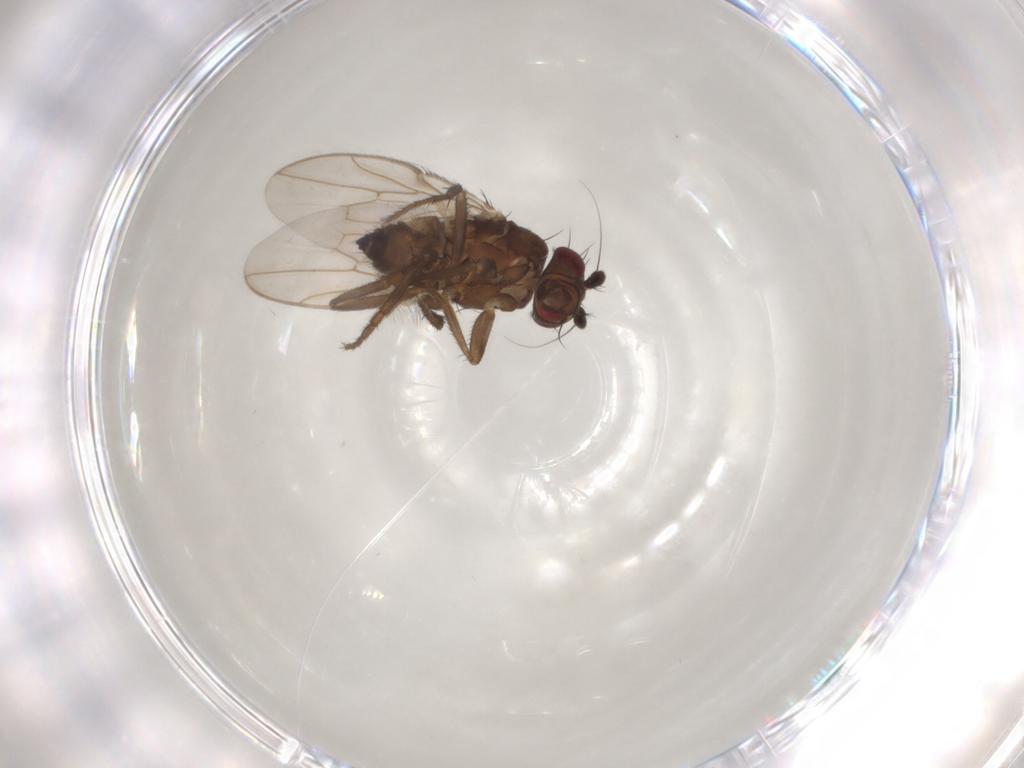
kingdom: Animalia
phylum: Arthropoda
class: Insecta
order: Diptera
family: Sphaeroceridae
